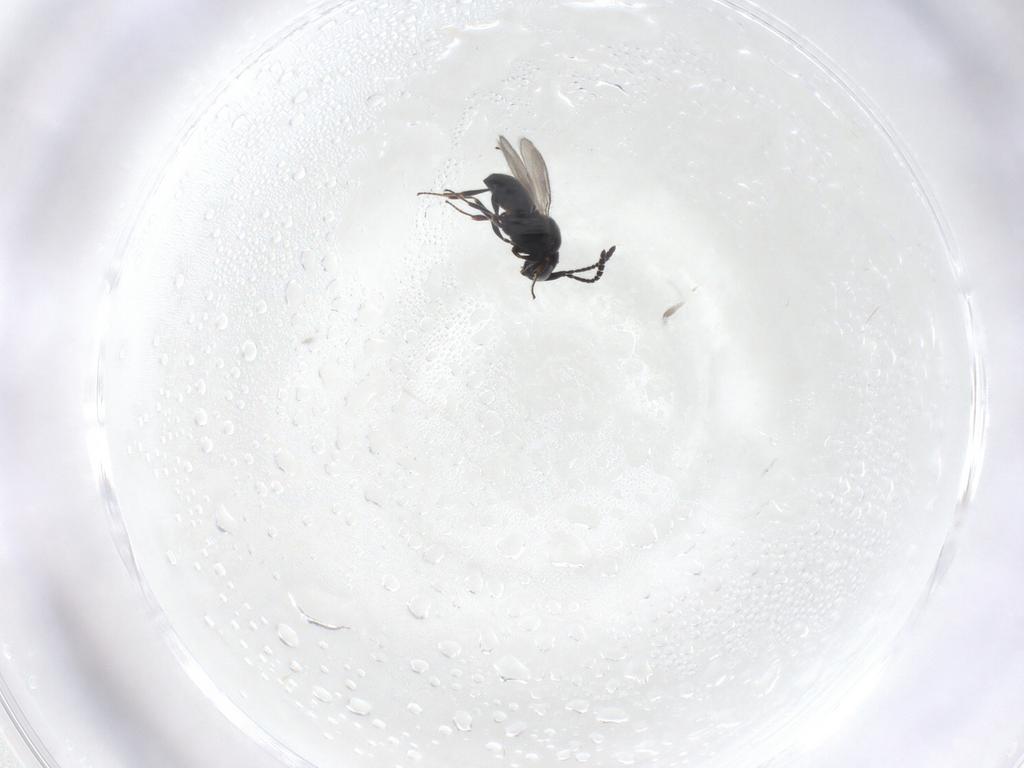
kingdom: Animalia
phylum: Arthropoda
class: Insecta
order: Hymenoptera
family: Scelionidae
